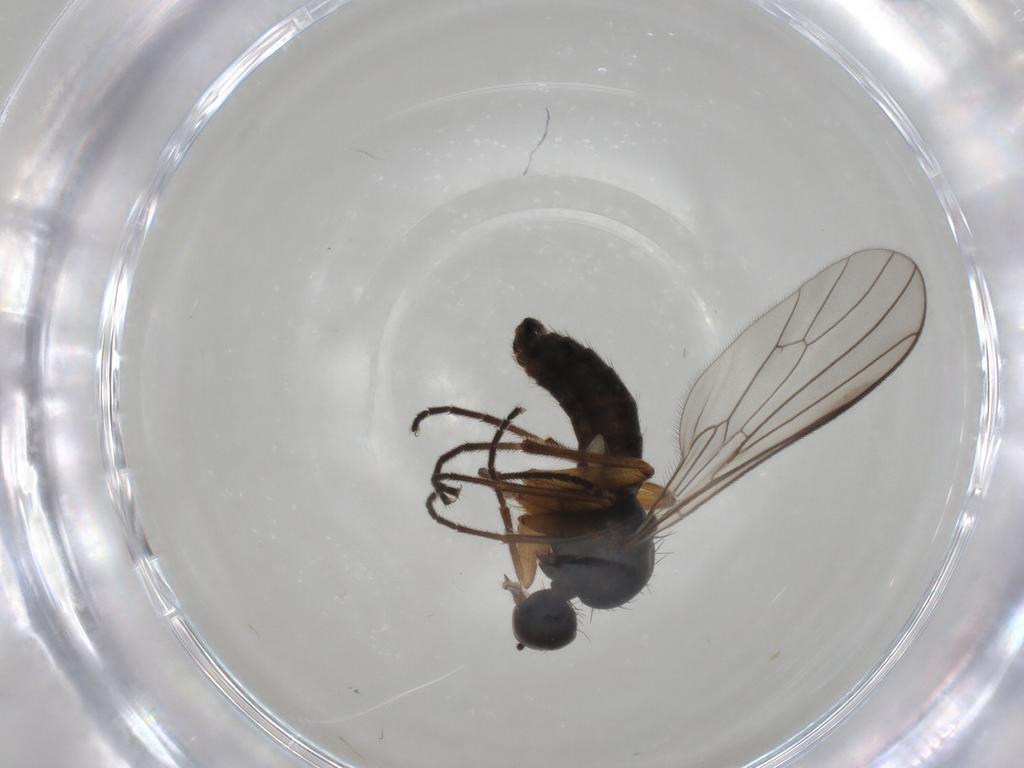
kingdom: Animalia
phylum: Arthropoda
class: Insecta
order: Diptera
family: Empididae
